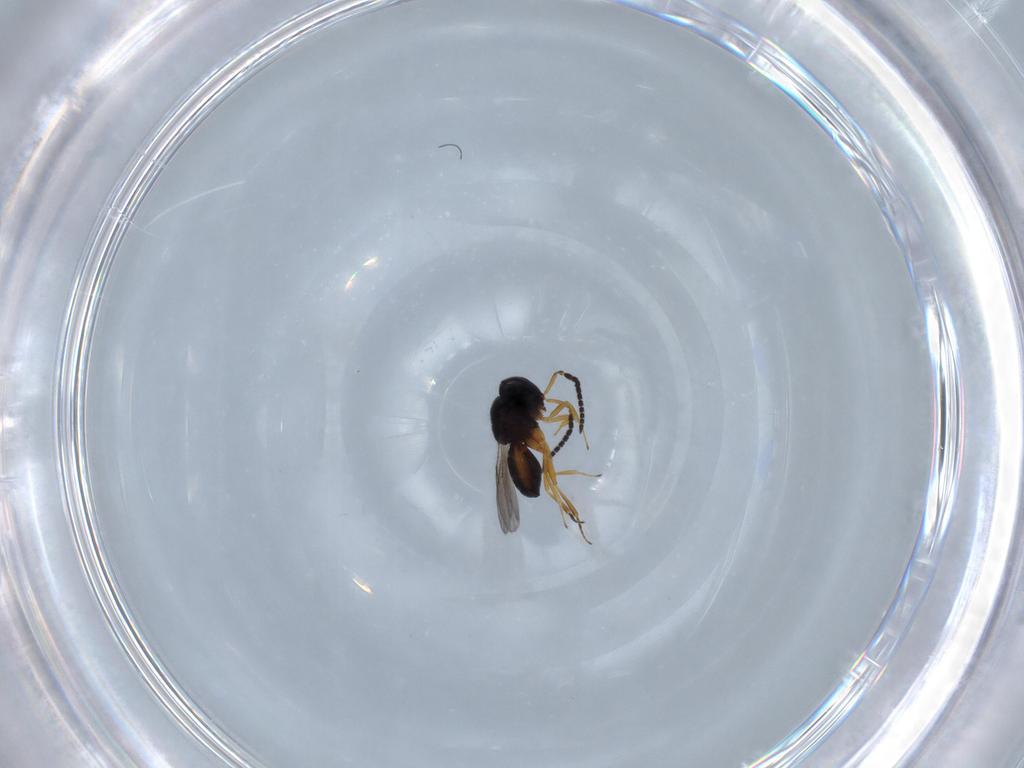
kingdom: Animalia
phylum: Arthropoda
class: Insecta
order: Hymenoptera
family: Scelionidae
